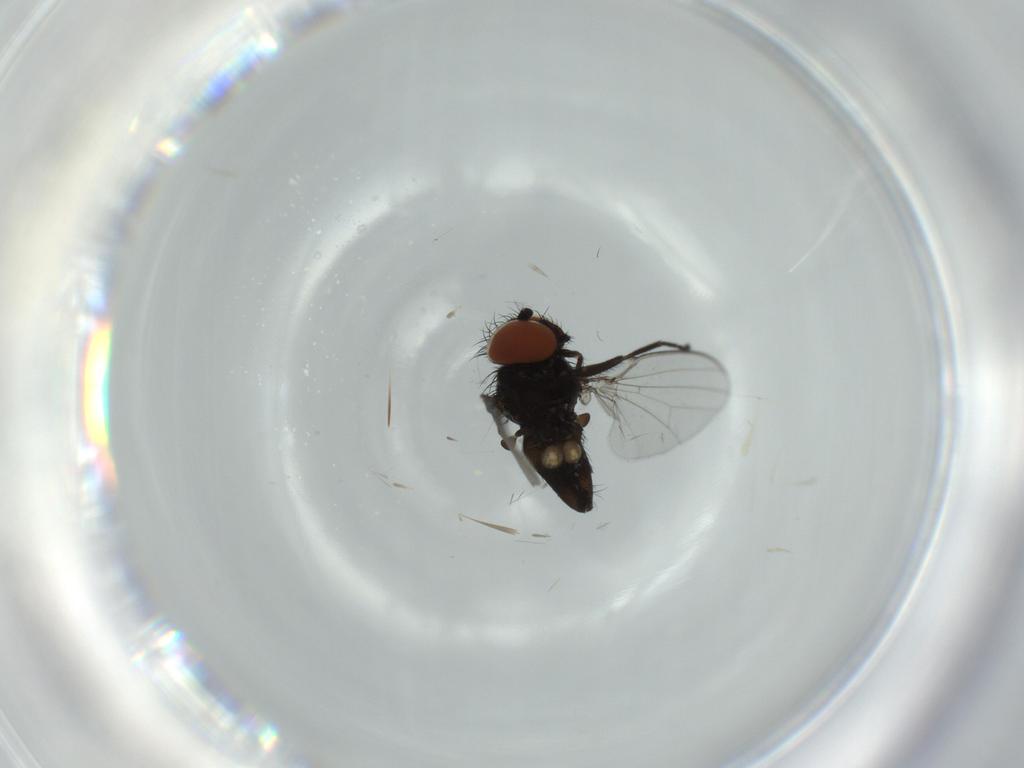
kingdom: Animalia
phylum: Arthropoda
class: Insecta
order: Diptera
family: Milichiidae
